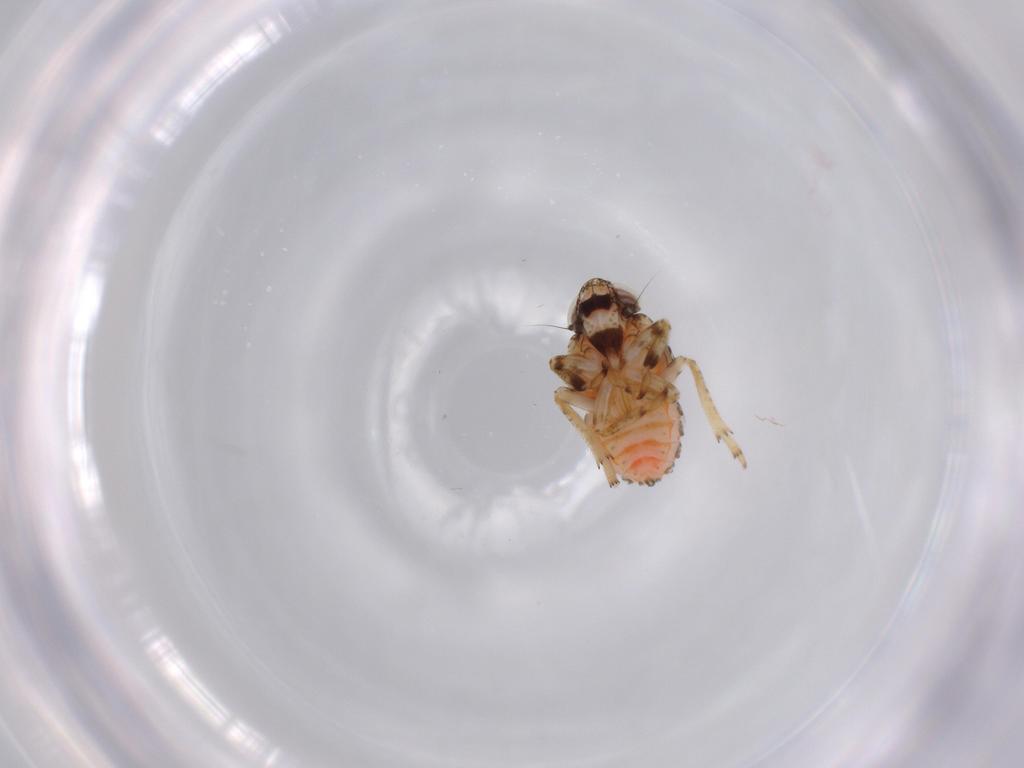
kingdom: Animalia
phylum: Arthropoda
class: Insecta
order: Hemiptera
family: Issidae
